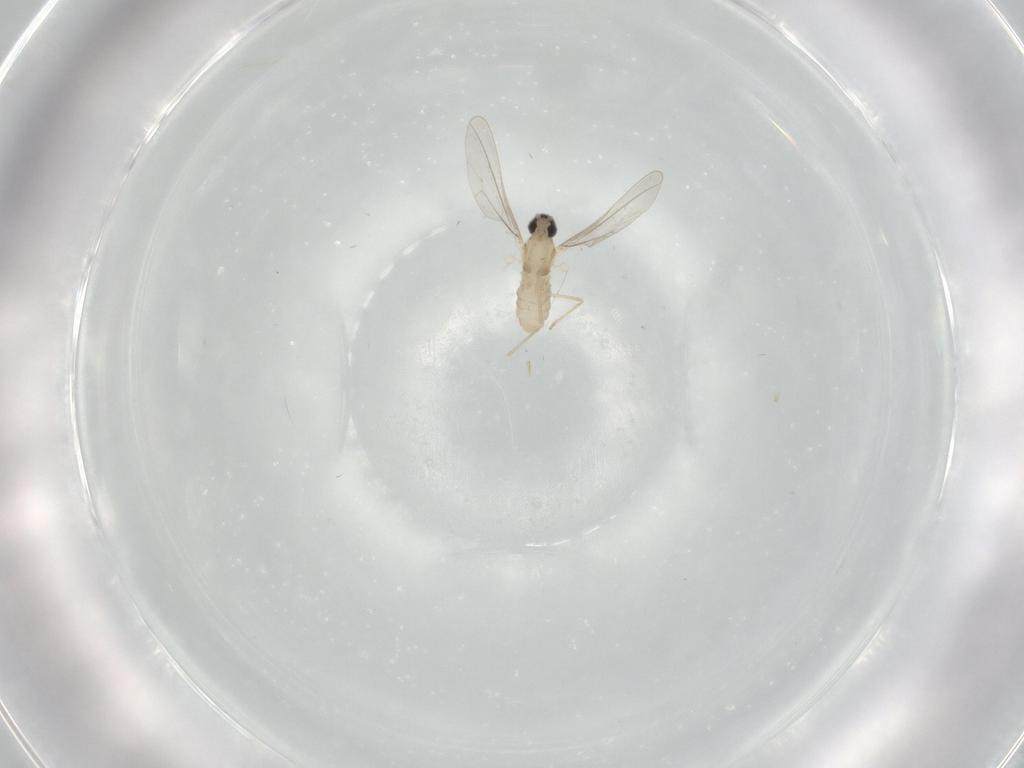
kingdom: Animalia
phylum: Arthropoda
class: Insecta
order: Diptera
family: Cecidomyiidae
